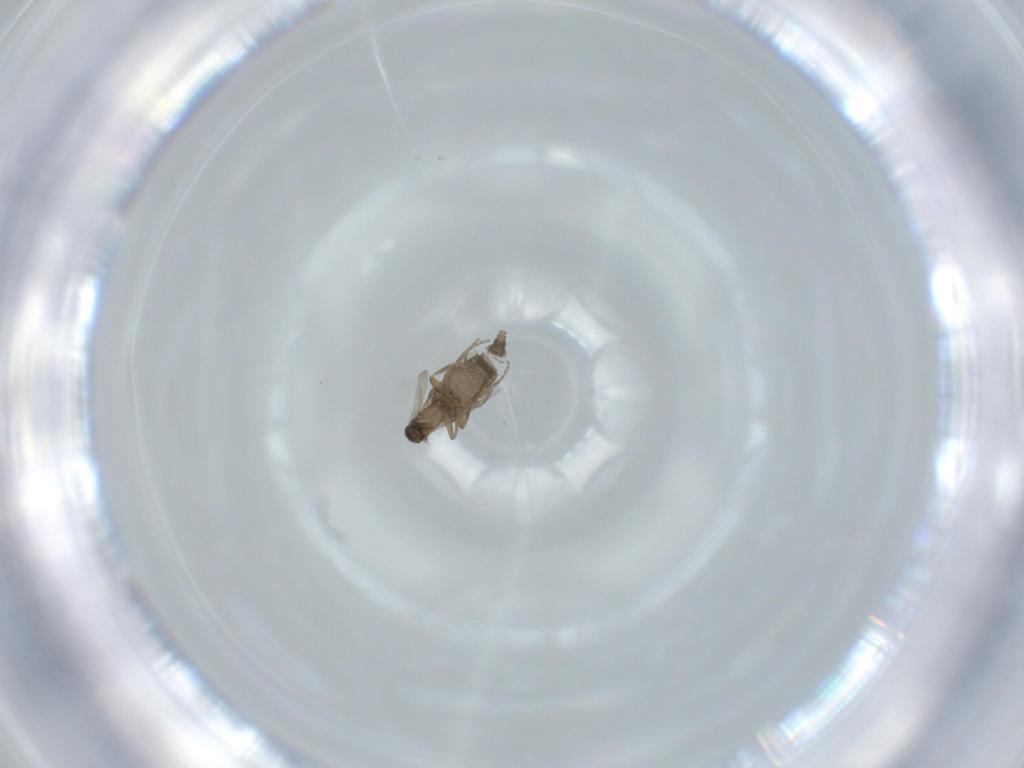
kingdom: Animalia
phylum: Arthropoda
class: Insecta
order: Diptera
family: Phoridae
